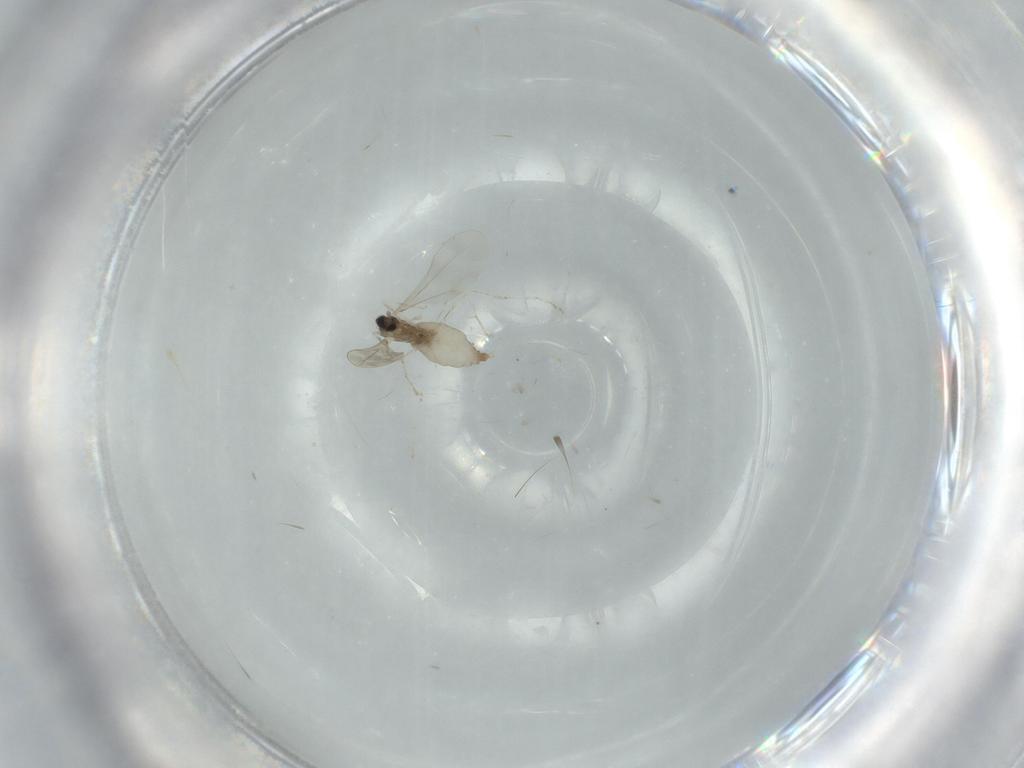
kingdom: Animalia
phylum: Arthropoda
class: Insecta
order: Diptera
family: Cecidomyiidae
